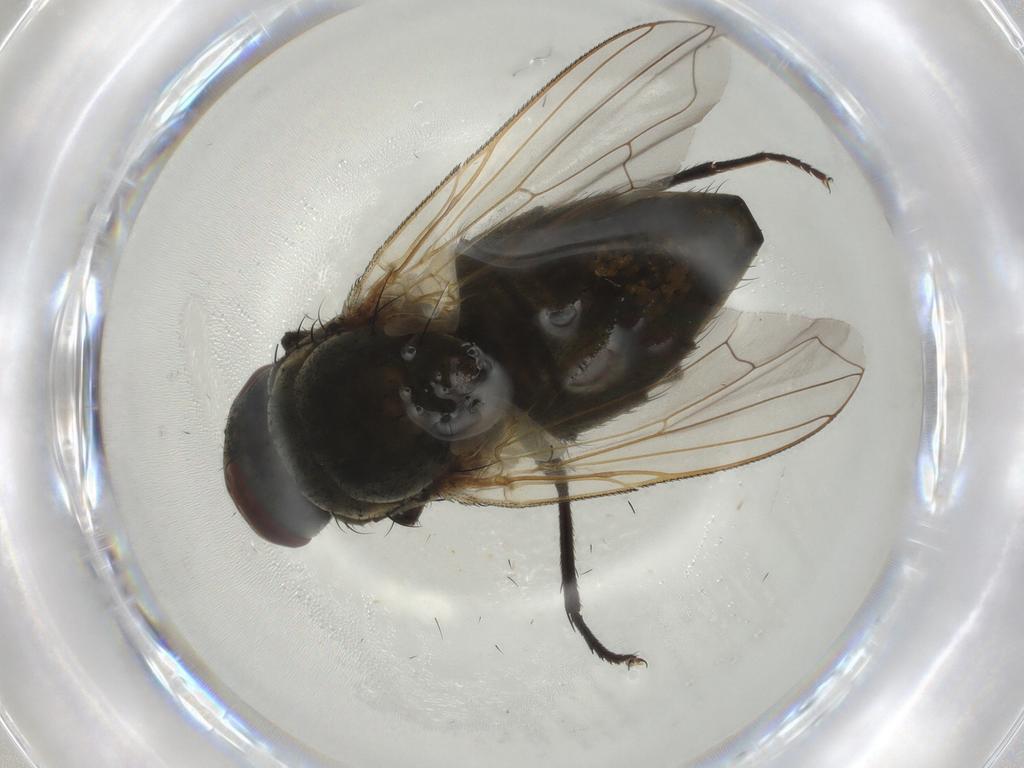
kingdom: Animalia
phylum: Arthropoda
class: Insecta
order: Diptera
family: Muscidae
